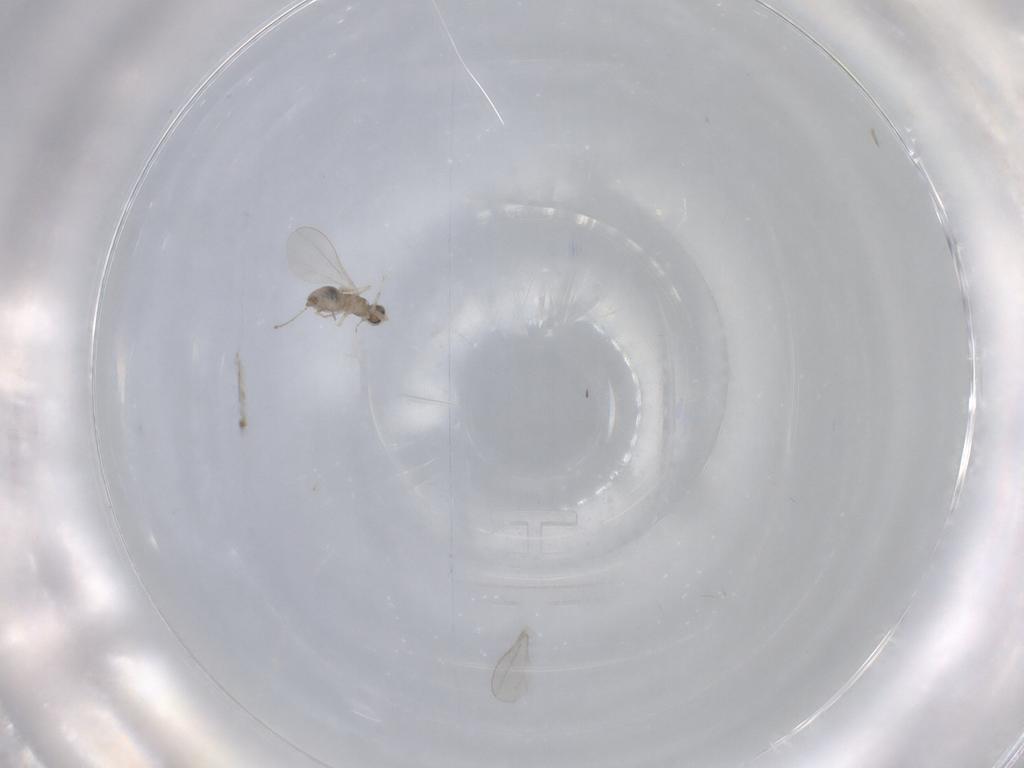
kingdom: Animalia
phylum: Arthropoda
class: Insecta
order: Diptera
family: Cecidomyiidae
